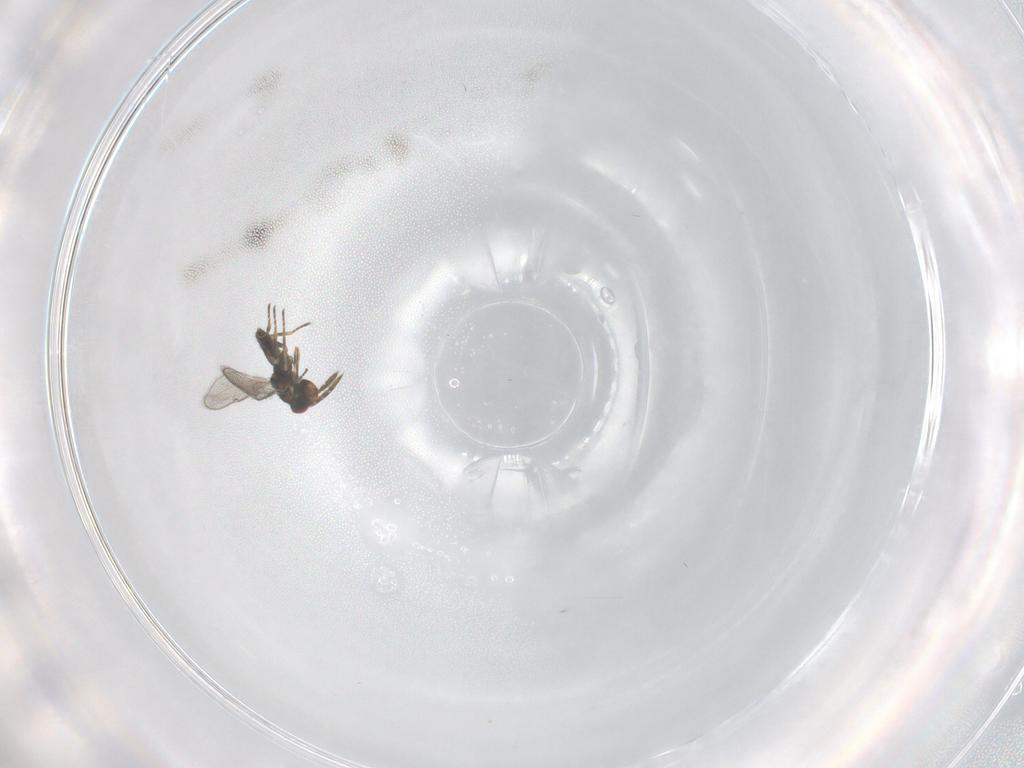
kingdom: Animalia
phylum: Arthropoda
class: Insecta
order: Hymenoptera
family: Eulophidae
